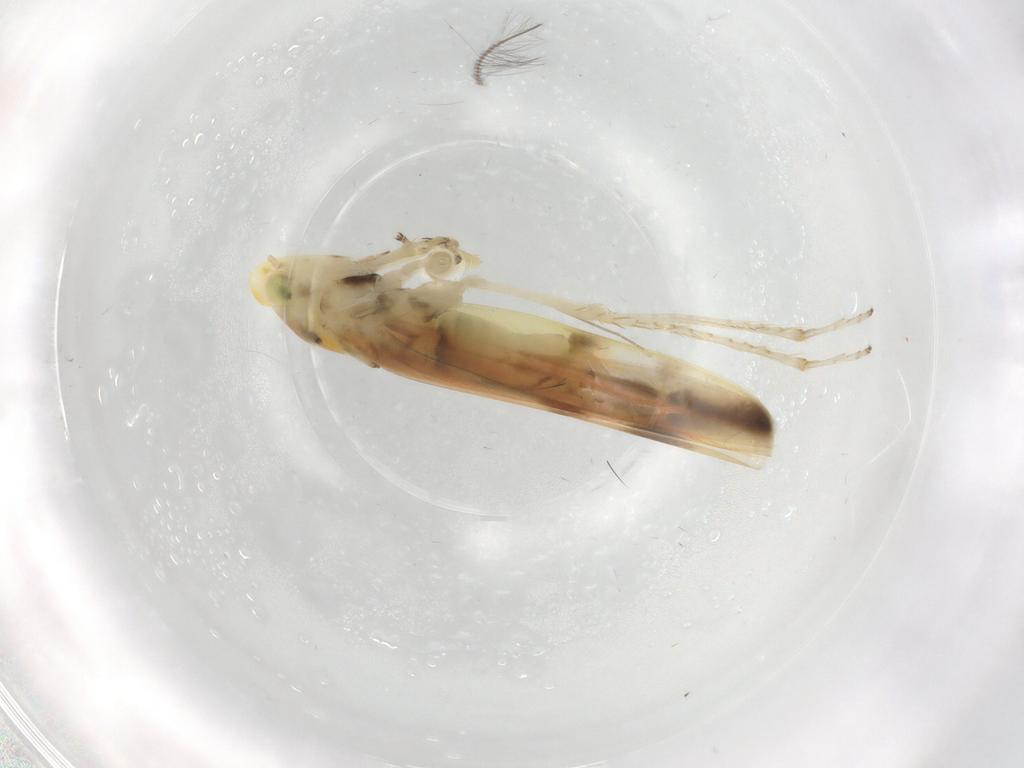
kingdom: Animalia
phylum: Arthropoda
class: Insecta
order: Hemiptera
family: Cicadellidae
